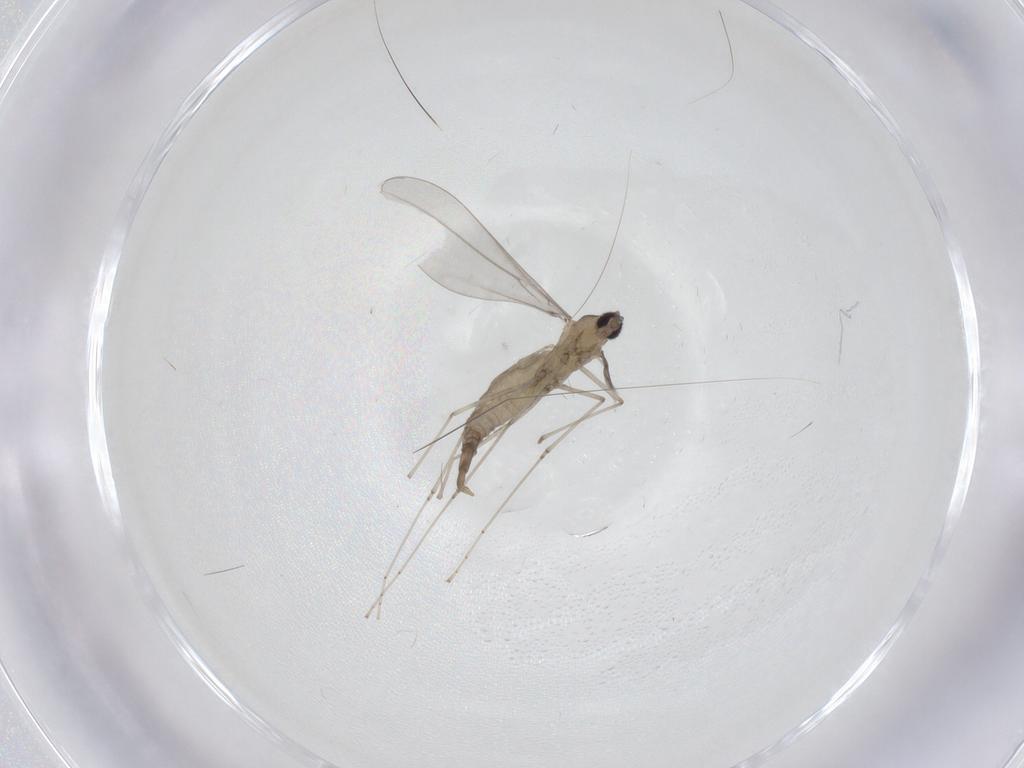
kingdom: Animalia
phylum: Arthropoda
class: Insecta
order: Diptera
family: Cecidomyiidae
